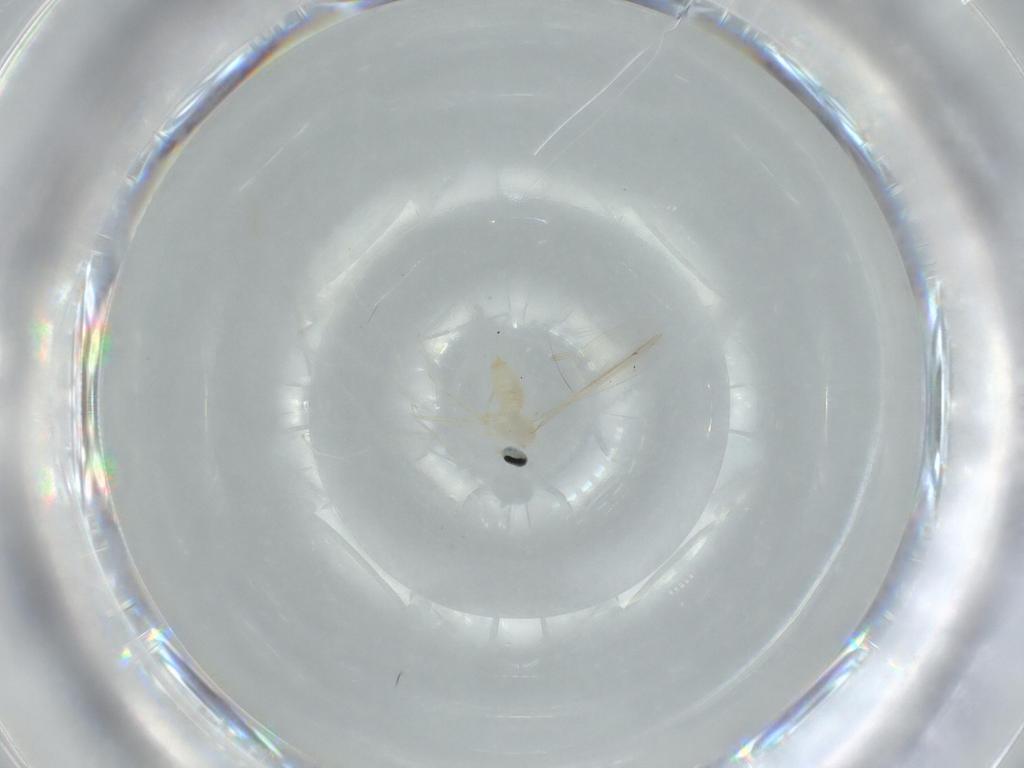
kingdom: Animalia
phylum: Arthropoda
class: Insecta
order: Diptera
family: Cecidomyiidae
